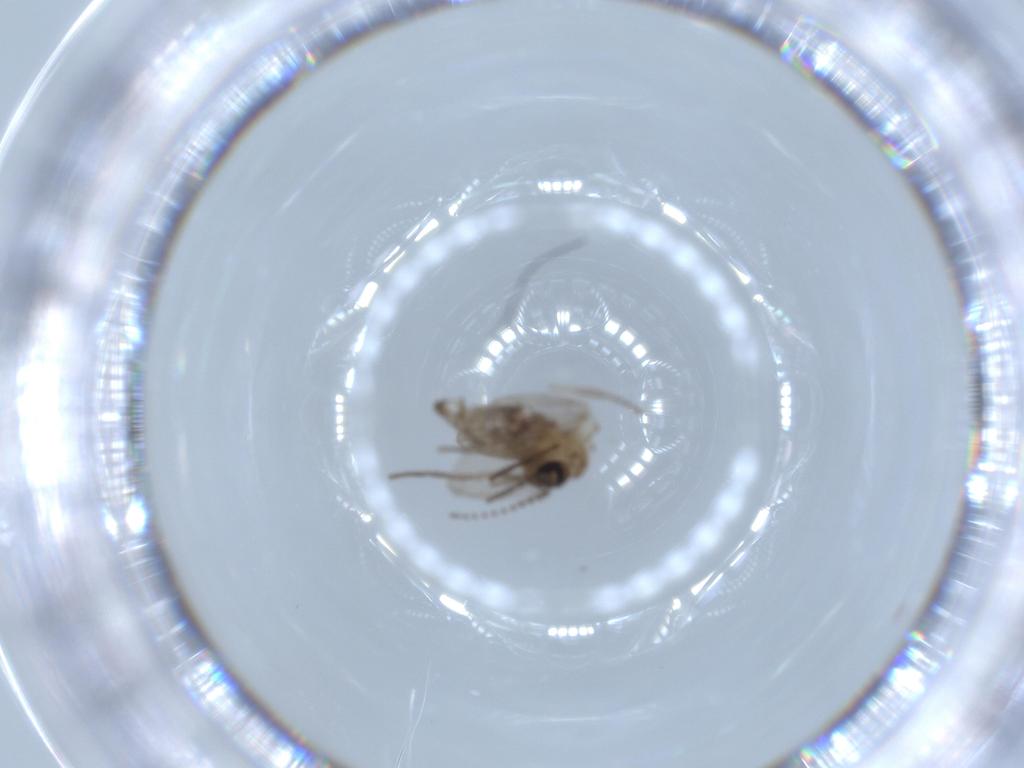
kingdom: Animalia
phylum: Arthropoda
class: Insecta
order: Diptera
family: Psychodidae
